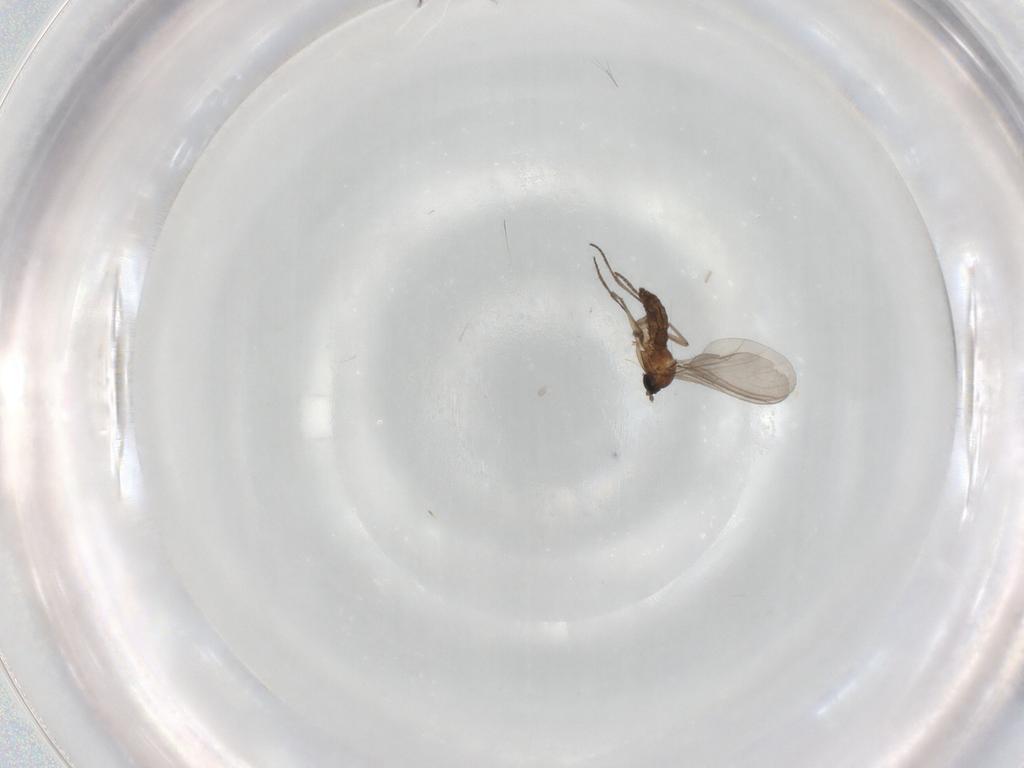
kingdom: Animalia
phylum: Arthropoda
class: Insecta
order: Diptera
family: Sciaridae
